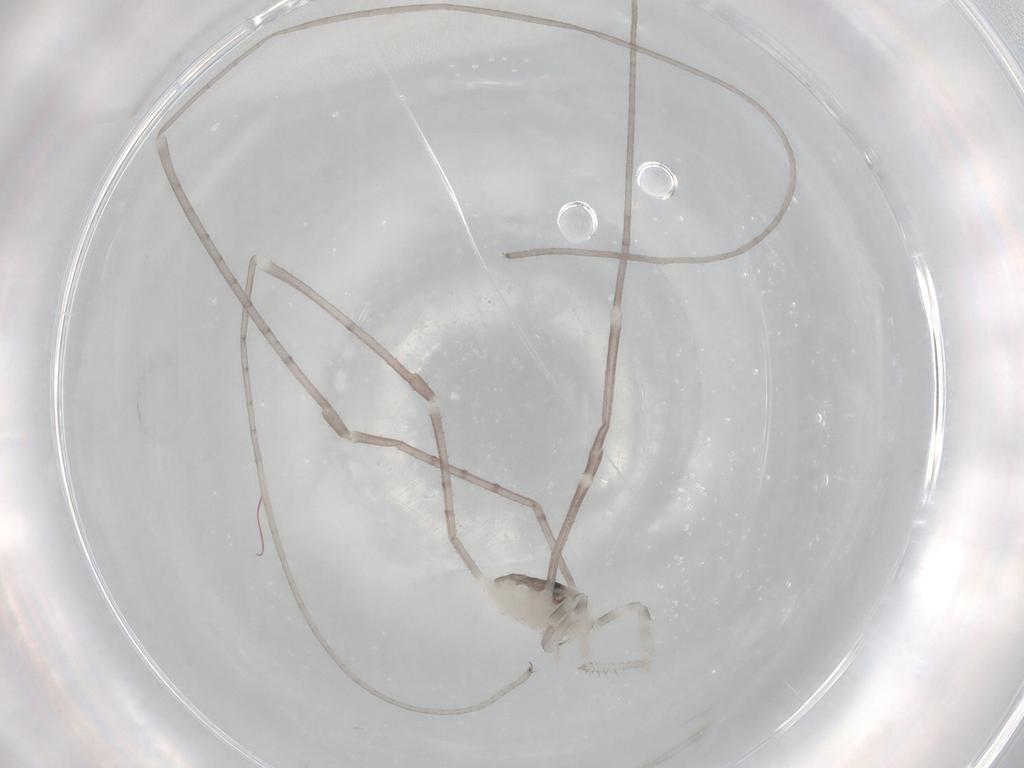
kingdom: Animalia
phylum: Arthropoda
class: Arachnida
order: Opiliones
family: Sclerosomatidae
